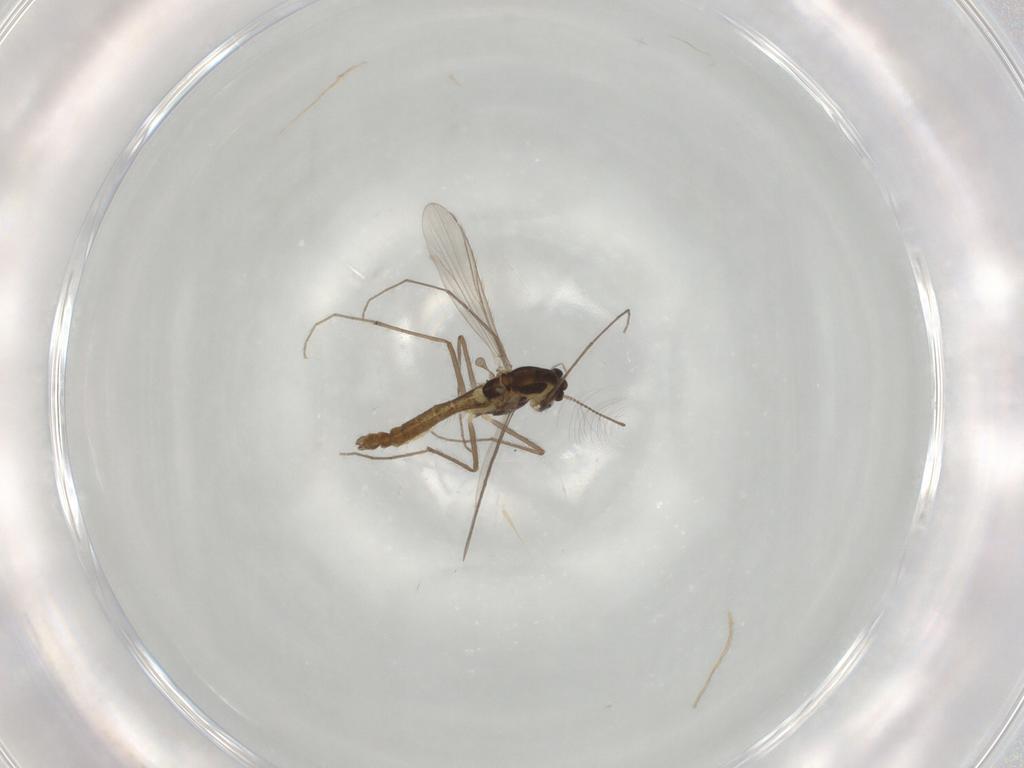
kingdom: Animalia
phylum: Arthropoda
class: Insecta
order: Diptera
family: Chironomidae
